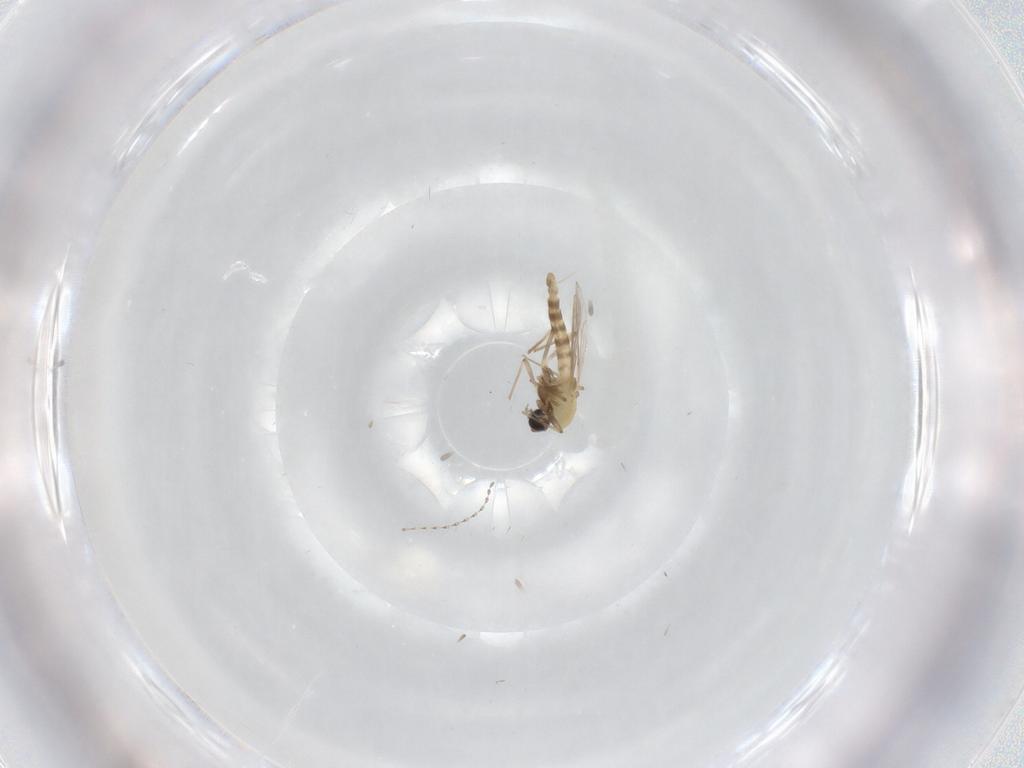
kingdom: Animalia
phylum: Arthropoda
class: Insecta
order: Diptera
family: Chironomidae
